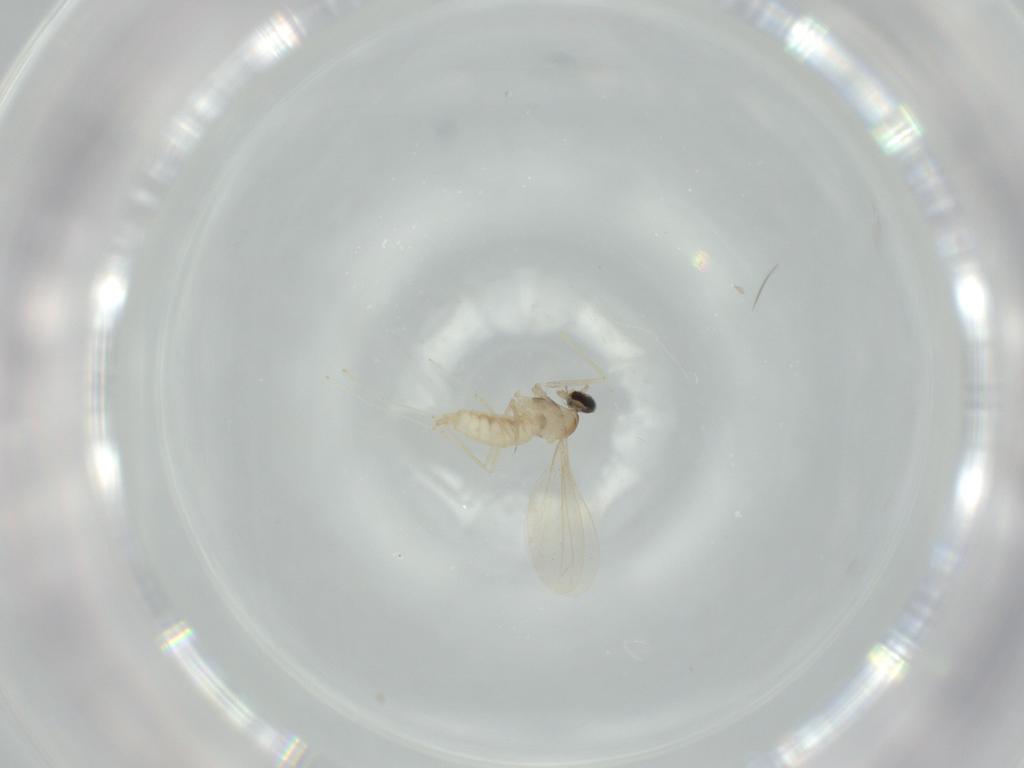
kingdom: Animalia
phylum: Arthropoda
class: Insecta
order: Diptera
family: Cecidomyiidae
